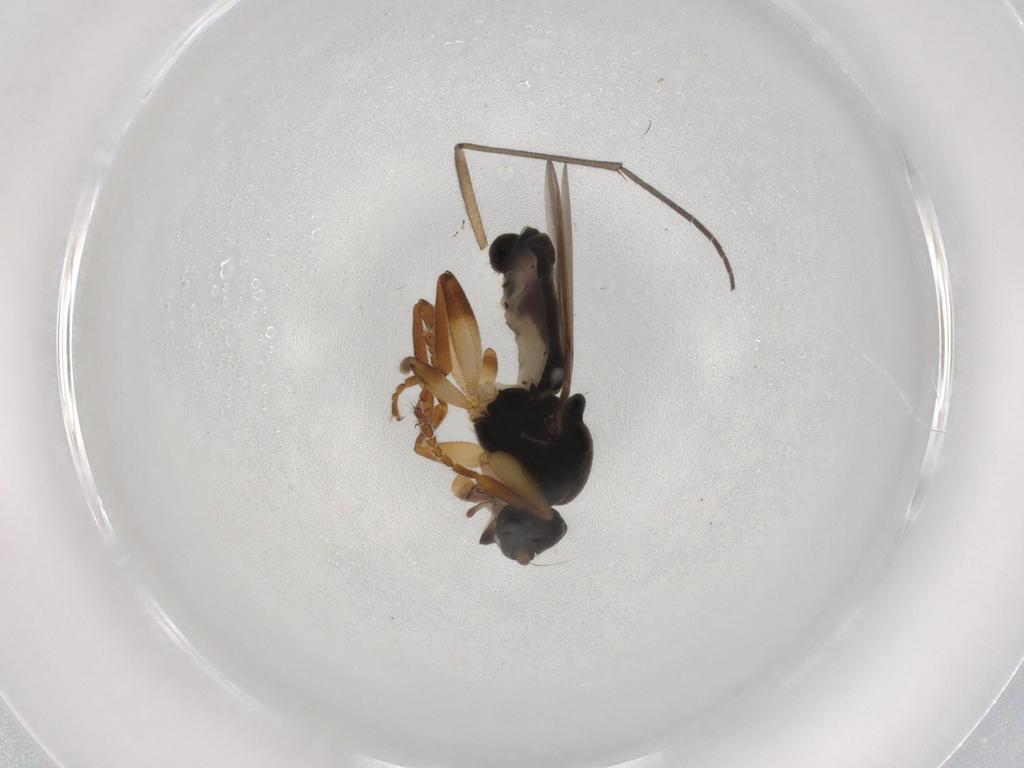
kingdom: Animalia
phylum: Arthropoda
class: Insecta
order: Diptera
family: Sphaeroceridae
